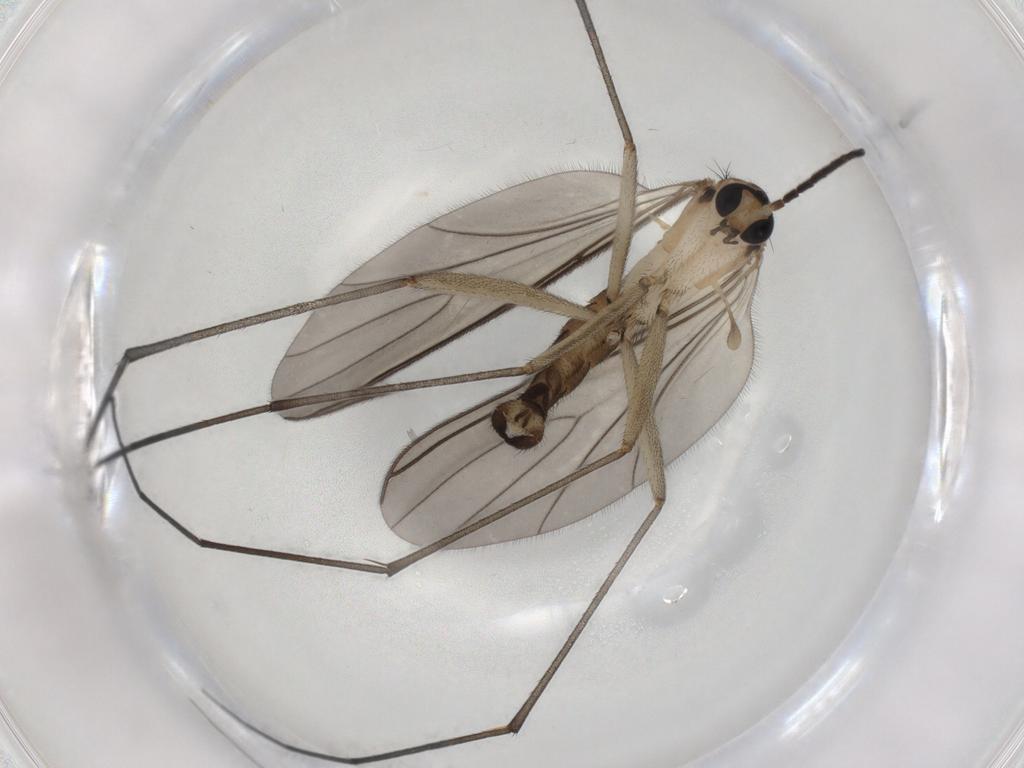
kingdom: Animalia
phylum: Arthropoda
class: Insecta
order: Diptera
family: Sciaridae
